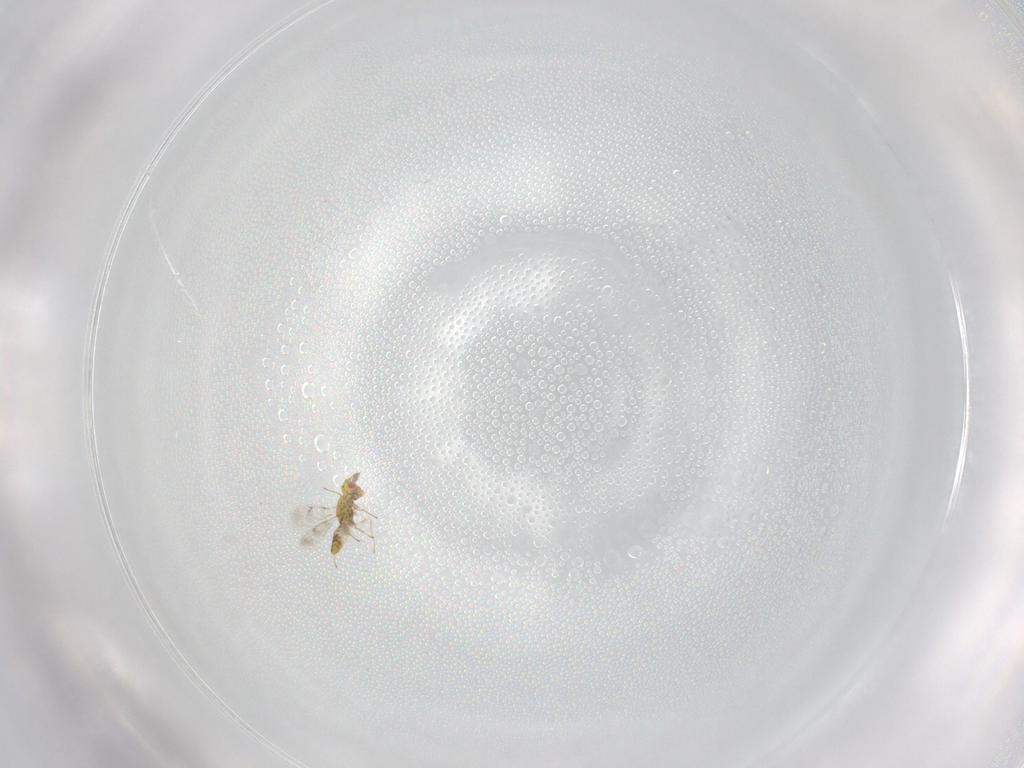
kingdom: Animalia
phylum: Arthropoda
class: Insecta
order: Hymenoptera
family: Eulophidae
